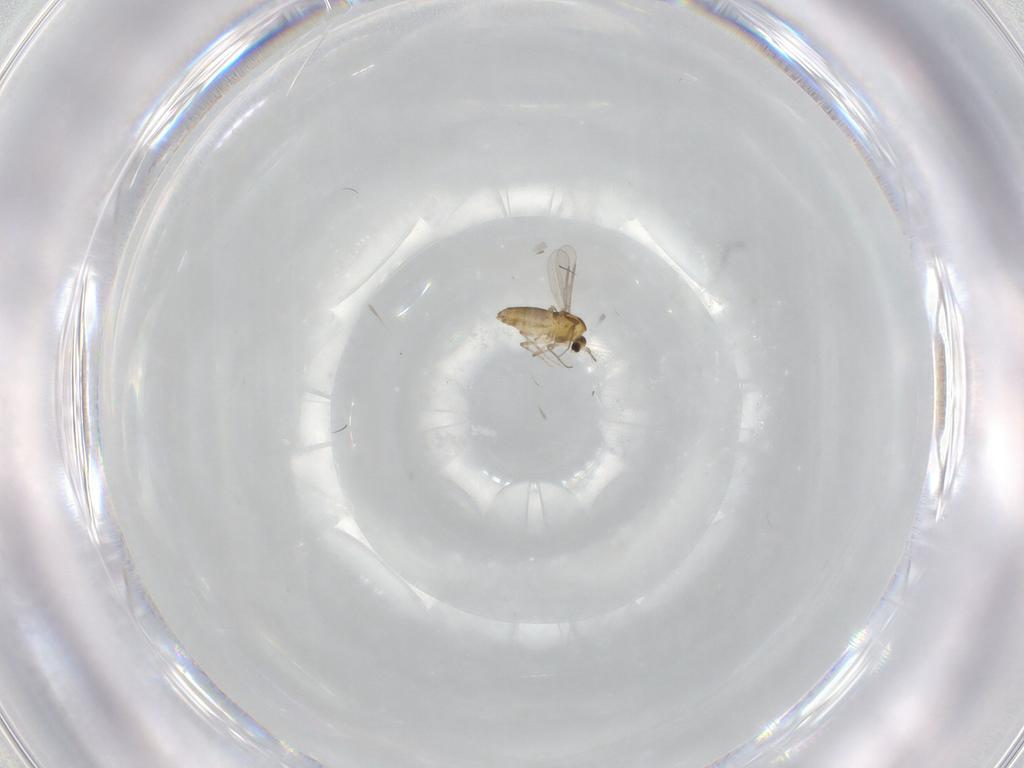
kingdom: Animalia
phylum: Arthropoda
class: Insecta
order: Diptera
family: Chironomidae
